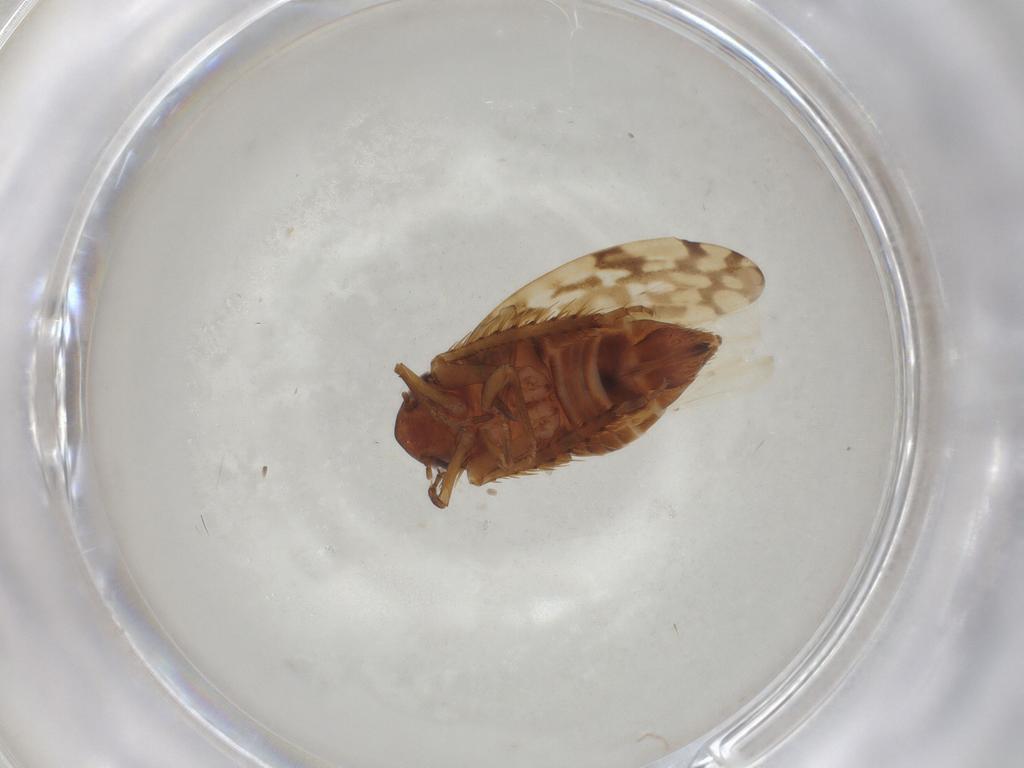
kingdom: Animalia
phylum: Arthropoda
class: Insecta
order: Hemiptera
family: Cicadellidae
